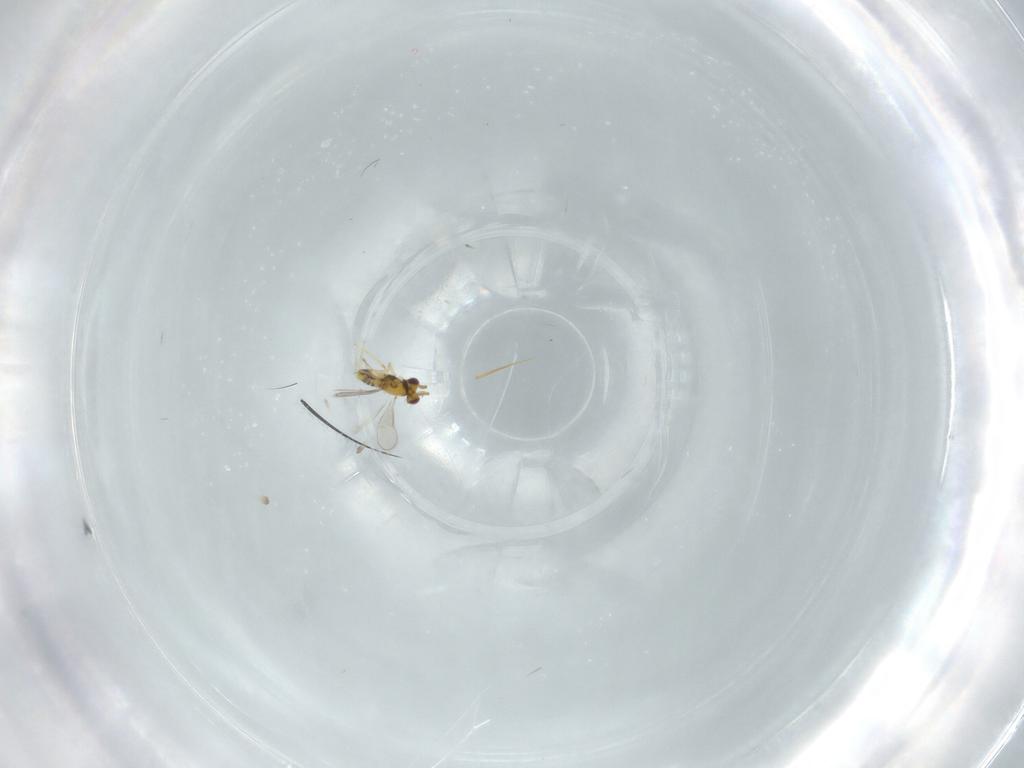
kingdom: Animalia
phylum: Arthropoda
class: Insecta
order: Hymenoptera
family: Aphelinidae
